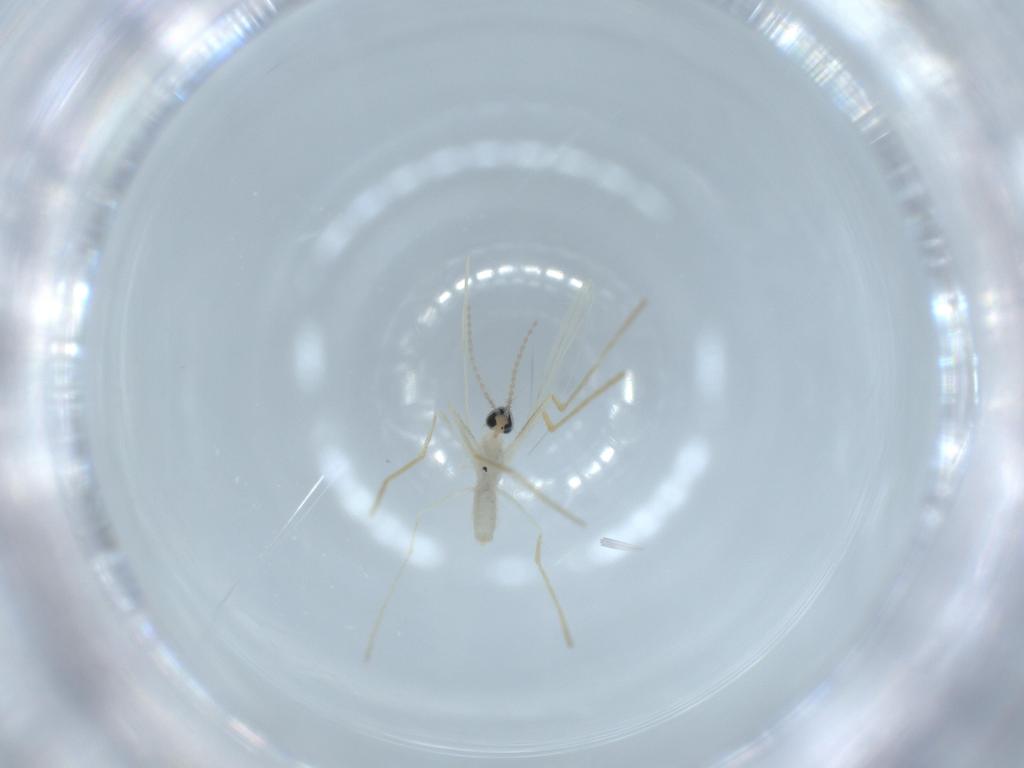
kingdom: Animalia
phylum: Arthropoda
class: Insecta
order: Diptera
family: Cecidomyiidae
